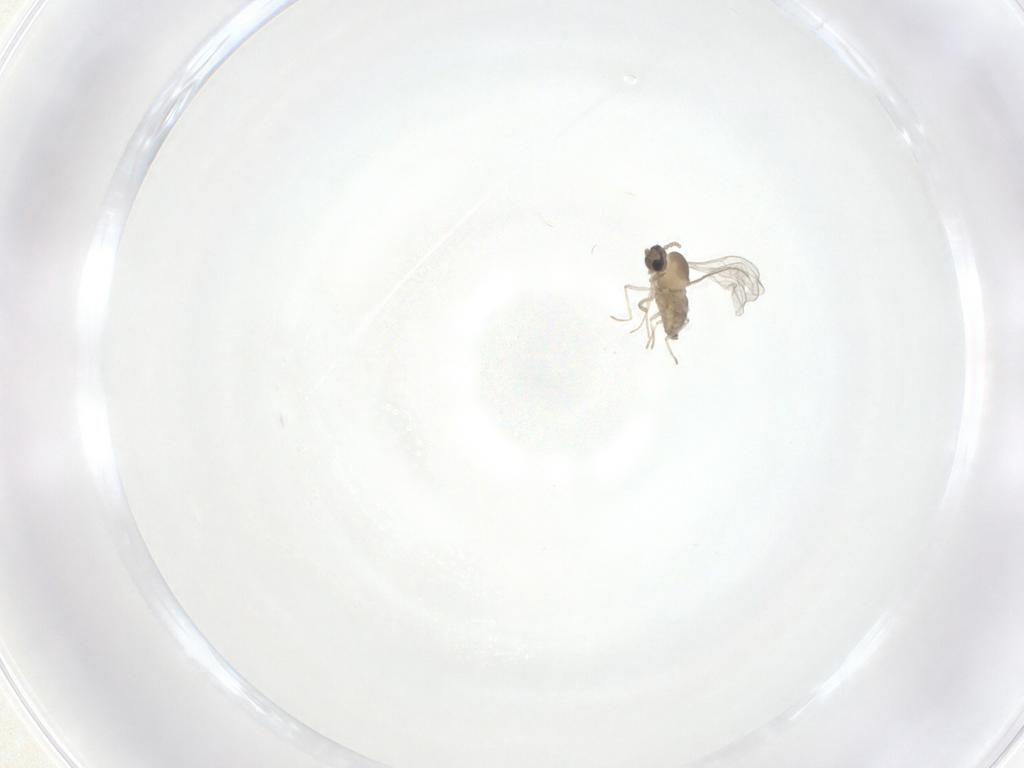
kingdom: Animalia
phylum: Arthropoda
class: Insecta
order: Diptera
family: Cecidomyiidae
